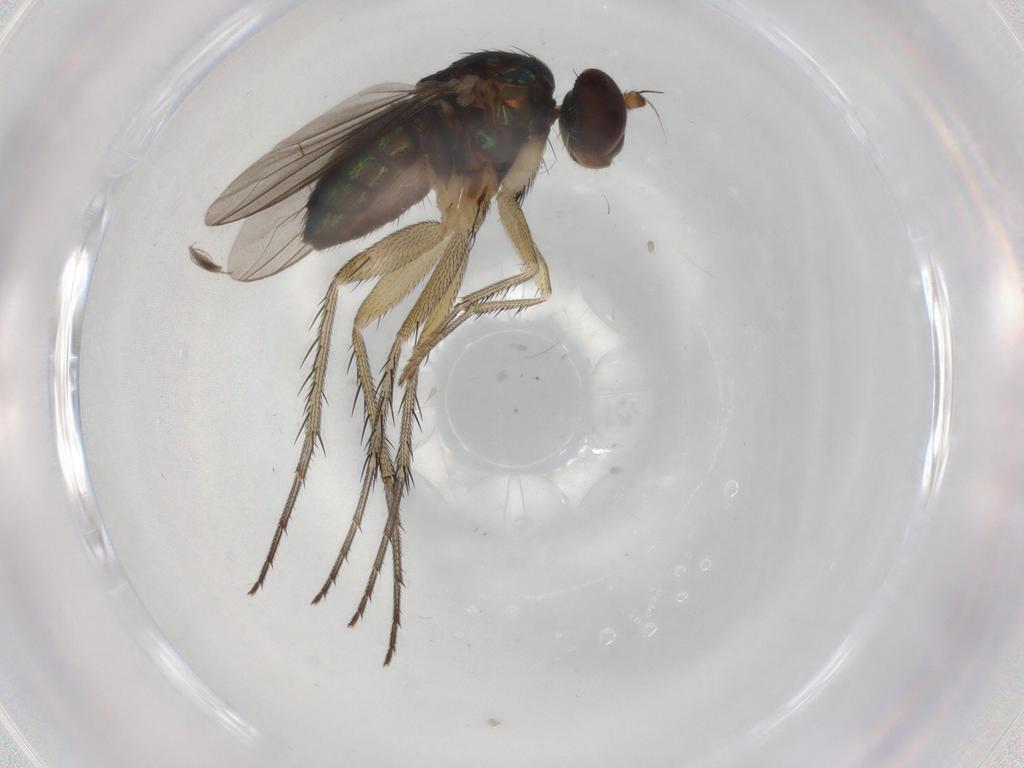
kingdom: Animalia
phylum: Arthropoda
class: Insecta
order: Diptera
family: Dolichopodidae
